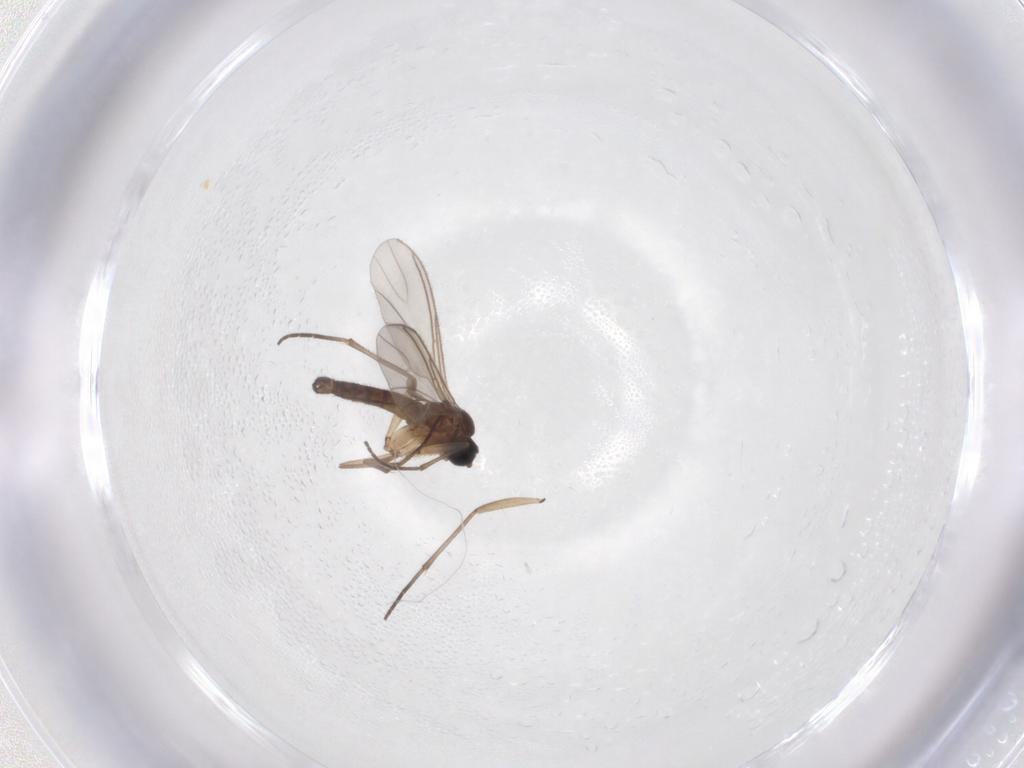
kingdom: Animalia
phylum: Arthropoda
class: Insecta
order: Diptera
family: Sciaridae
